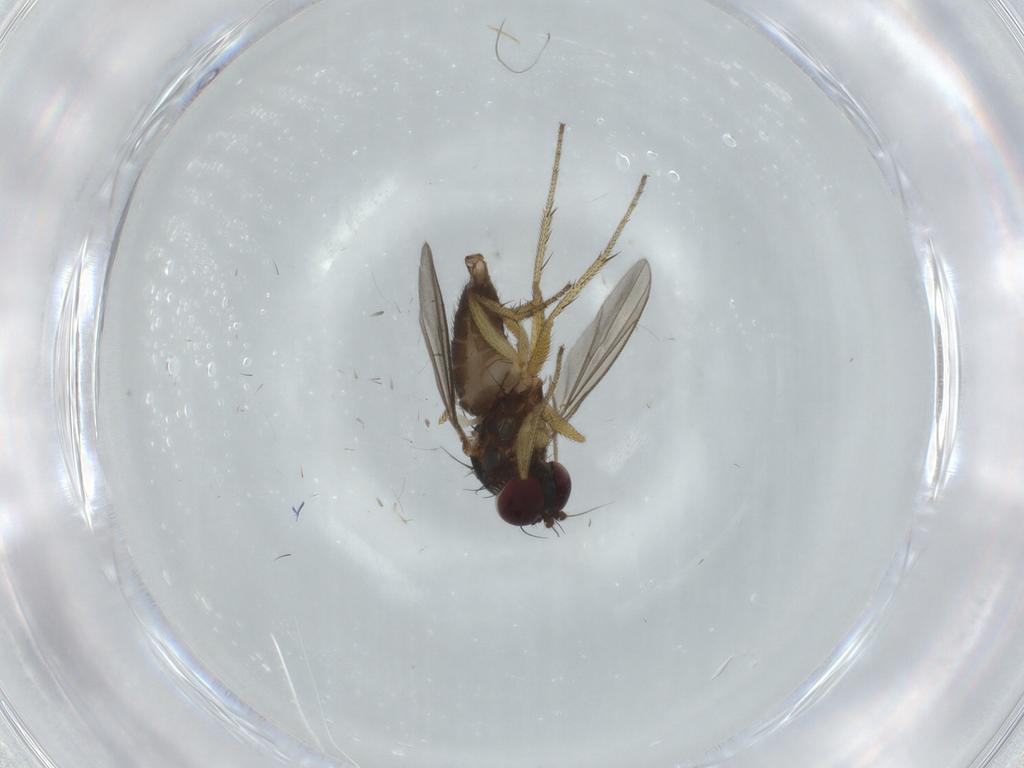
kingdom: Animalia
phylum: Arthropoda
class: Insecta
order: Diptera
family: Dolichopodidae
